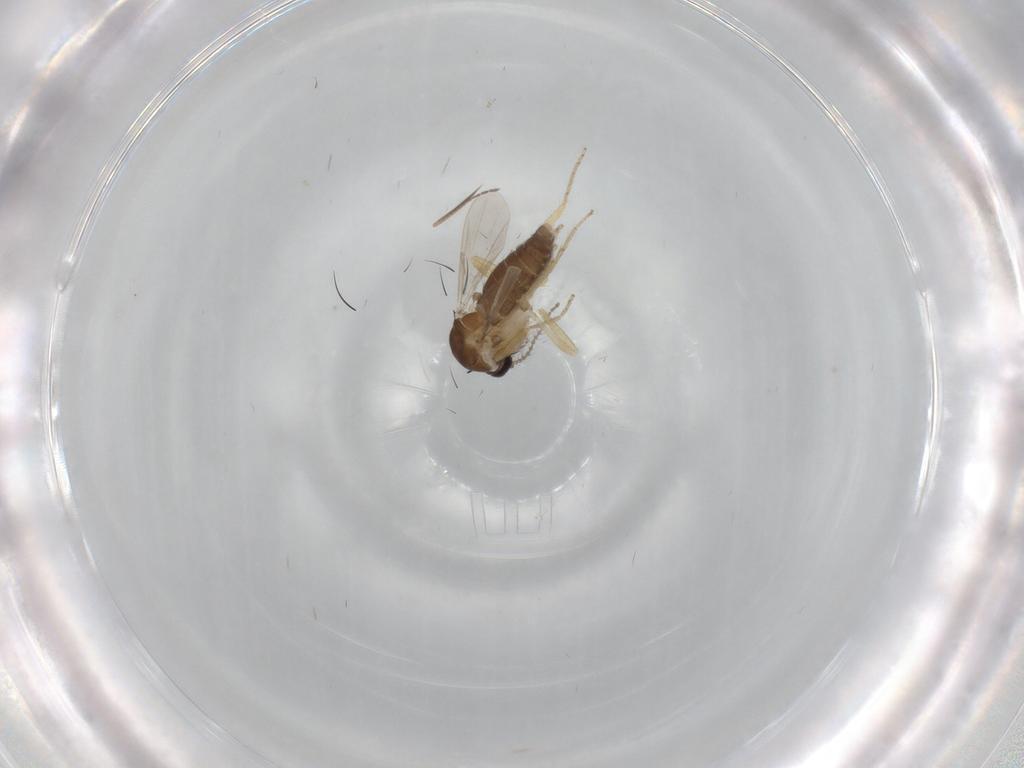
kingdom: Animalia
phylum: Arthropoda
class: Insecta
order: Diptera
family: Ceratopogonidae
